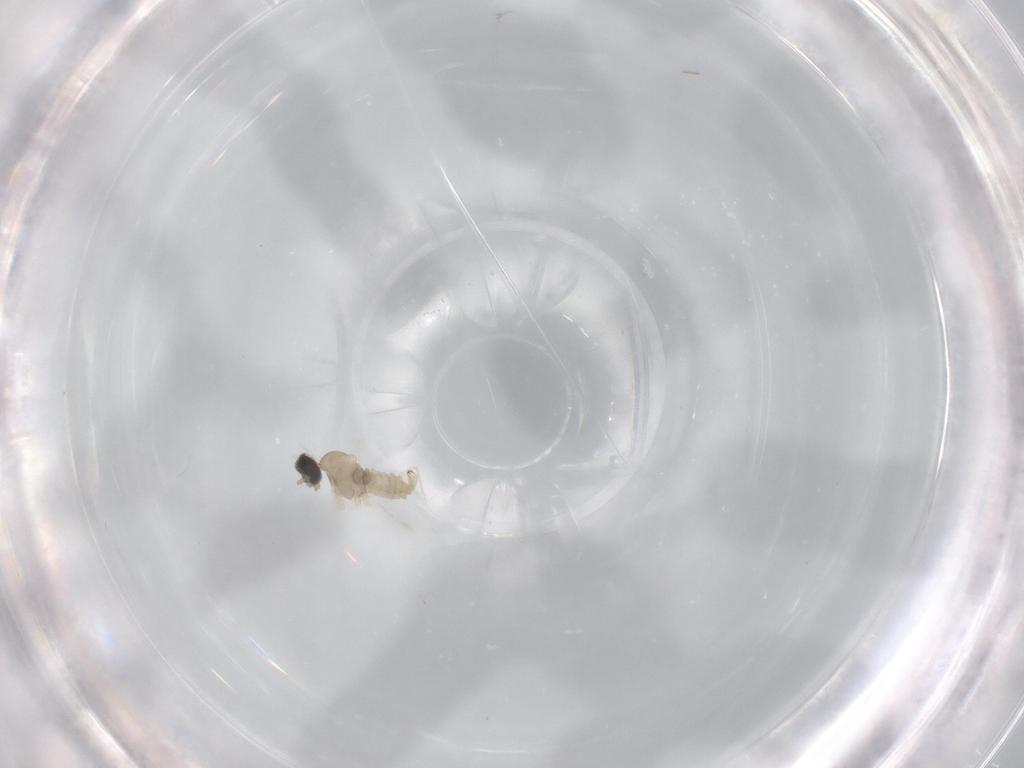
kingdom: Animalia
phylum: Arthropoda
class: Insecta
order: Diptera
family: Cecidomyiidae
